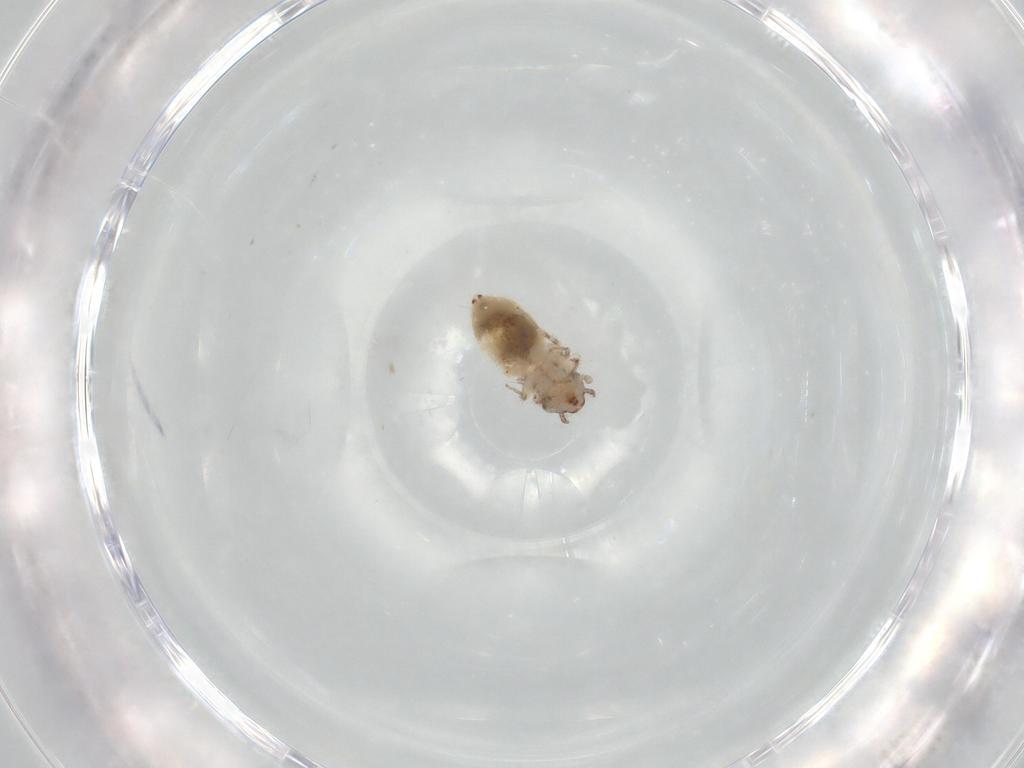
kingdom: Animalia
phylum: Arthropoda
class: Insecta
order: Psocodea
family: Lepidopsocidae
